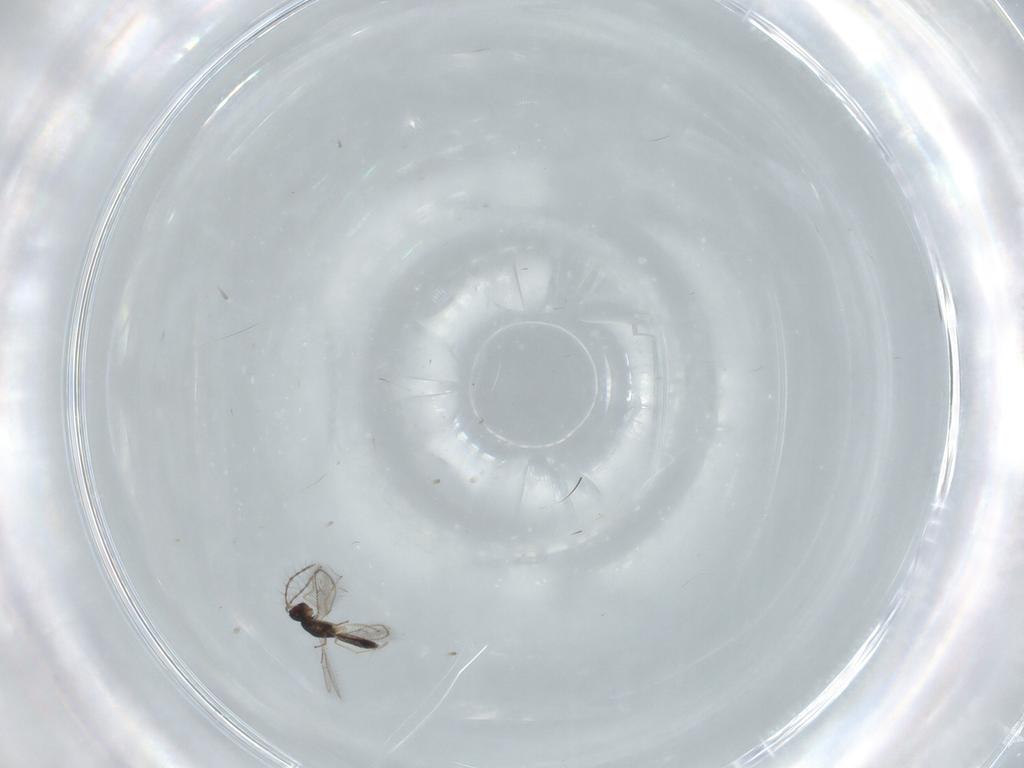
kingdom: Animalia
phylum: Arthropoda
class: Insecta
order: Hymenoptera
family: Pteromalidae
